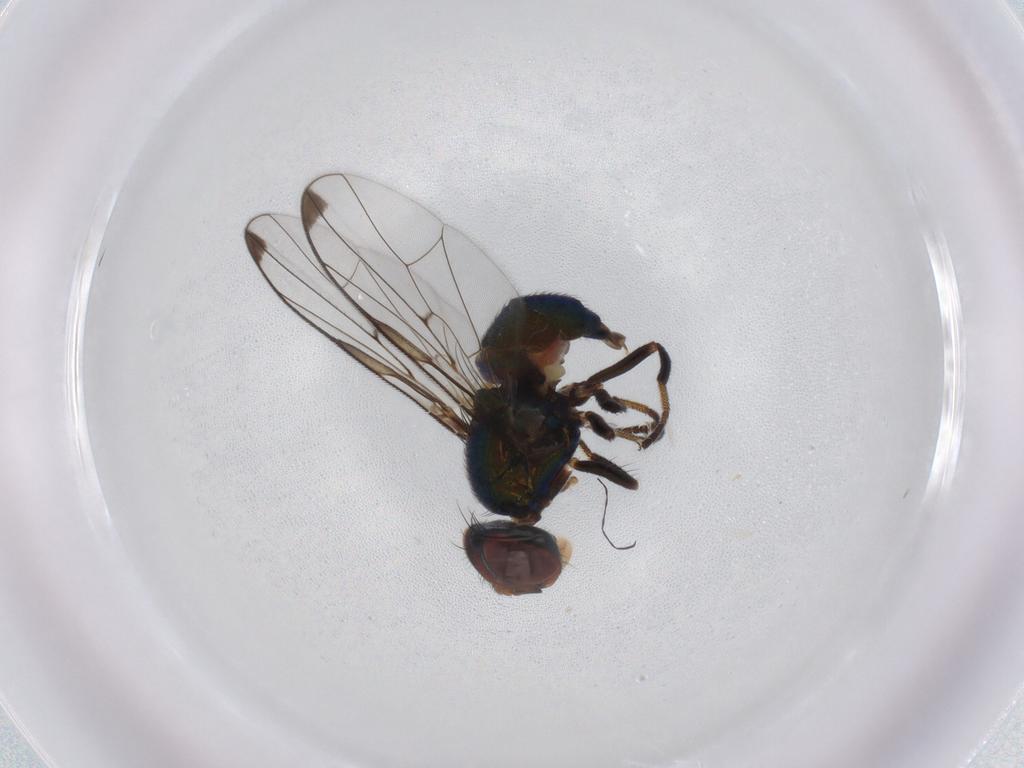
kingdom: Animalia
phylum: Arthropoda
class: Insecta
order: Diptera
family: Platystomatidae
